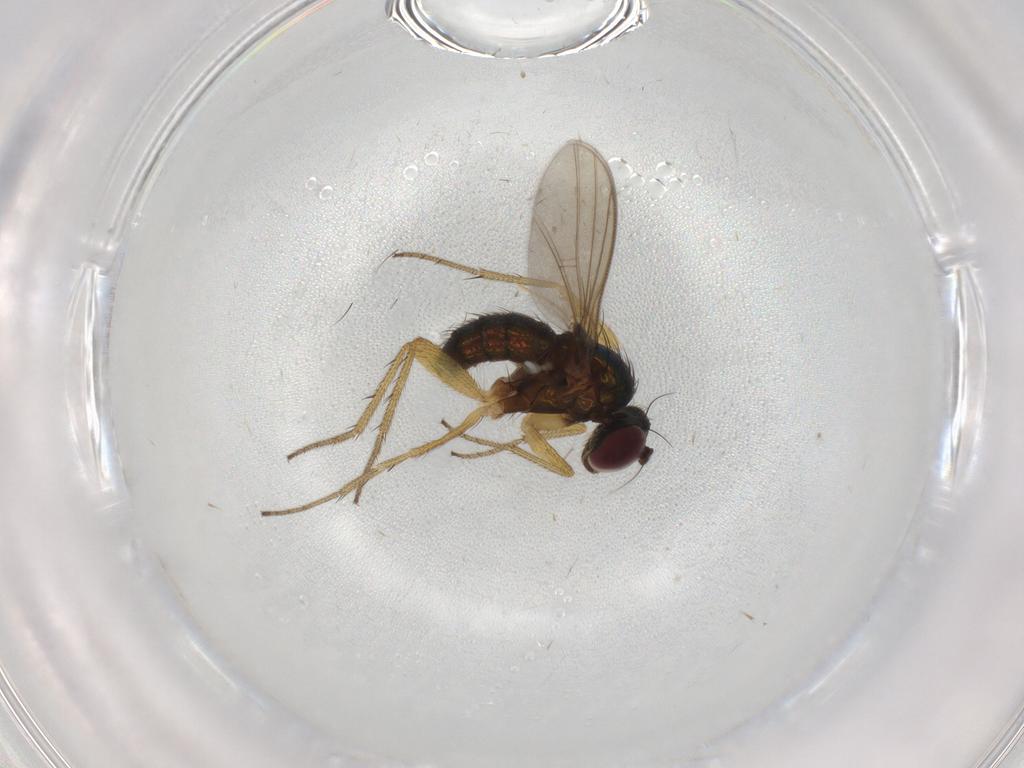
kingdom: Animalia
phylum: Arthropoda
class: Insecta
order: Diptera
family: Dolichopodidae
